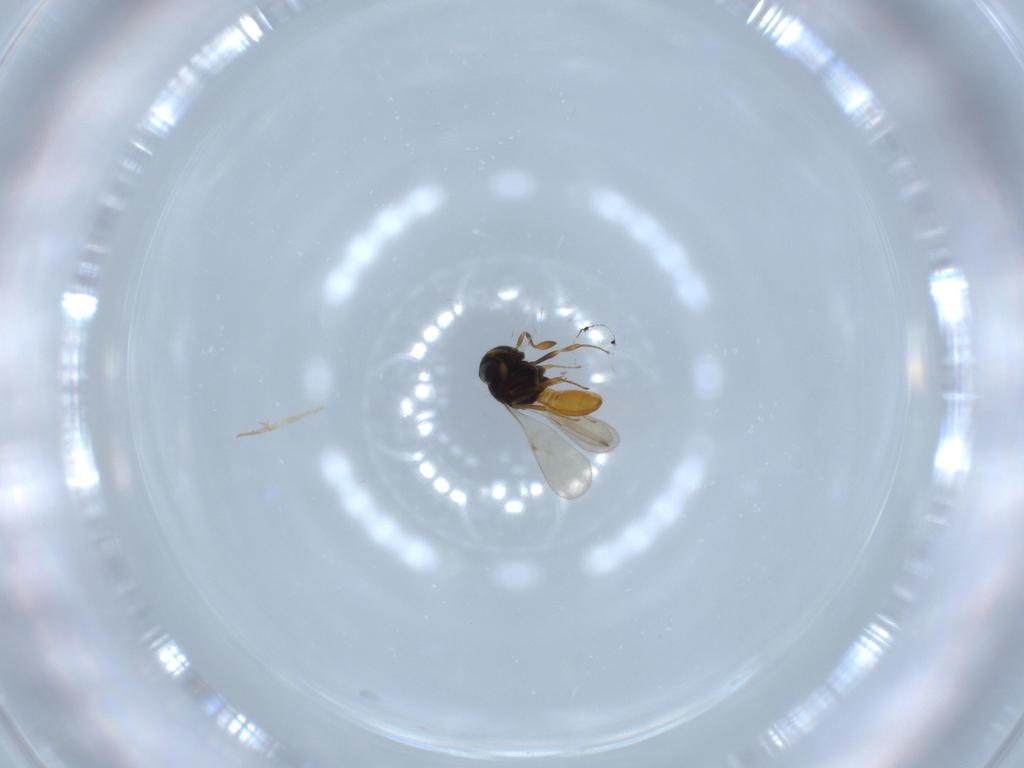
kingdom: Animalia
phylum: Arthropoda
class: Insecta
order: Hymenoptera
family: Scelionidae
